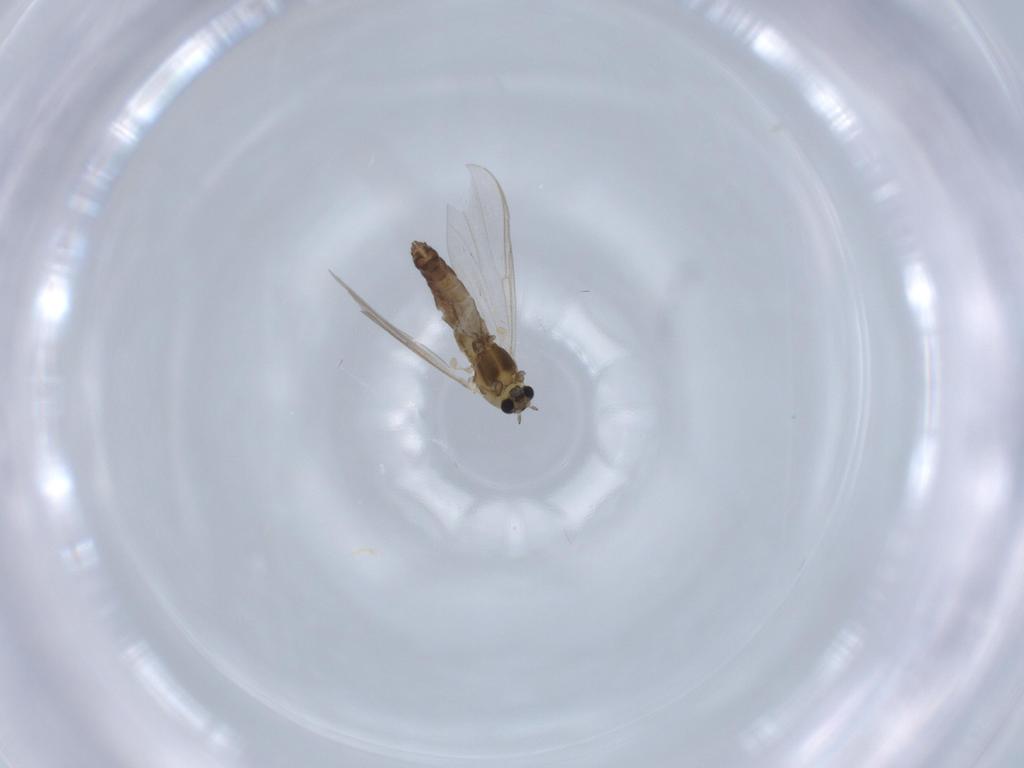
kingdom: Animalia
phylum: Arthropoda
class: Insecta
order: Diptera
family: Chironomidae
